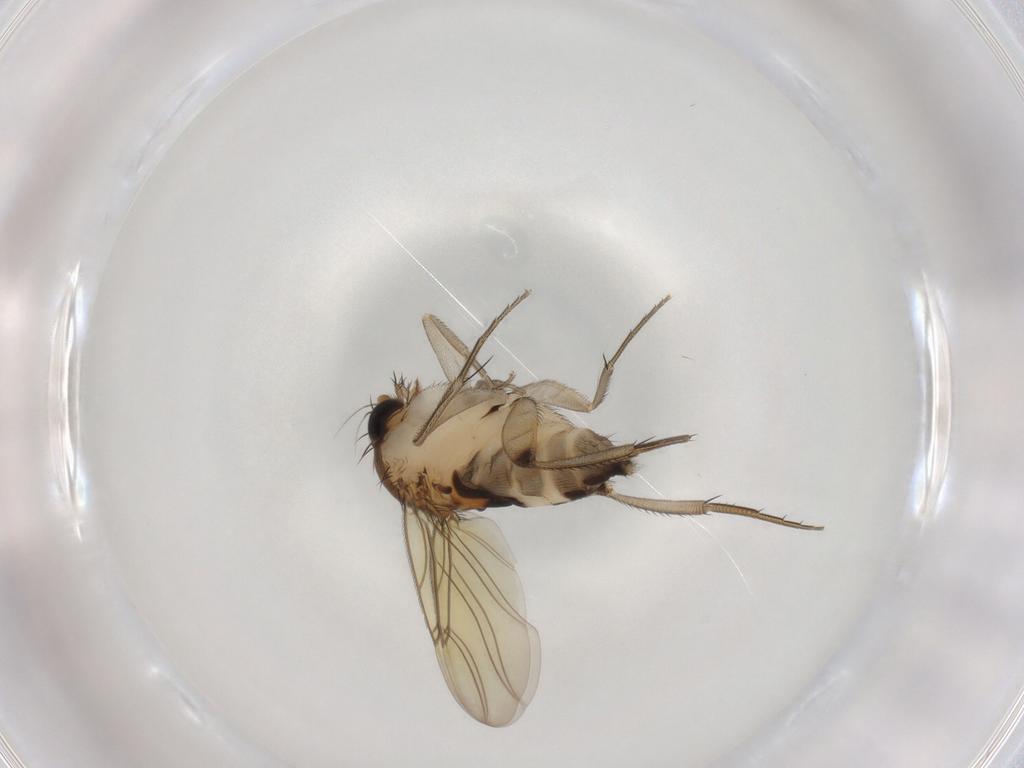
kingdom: Animalia
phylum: Arthropoda
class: Insecta
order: Diptera
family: Phoridae
